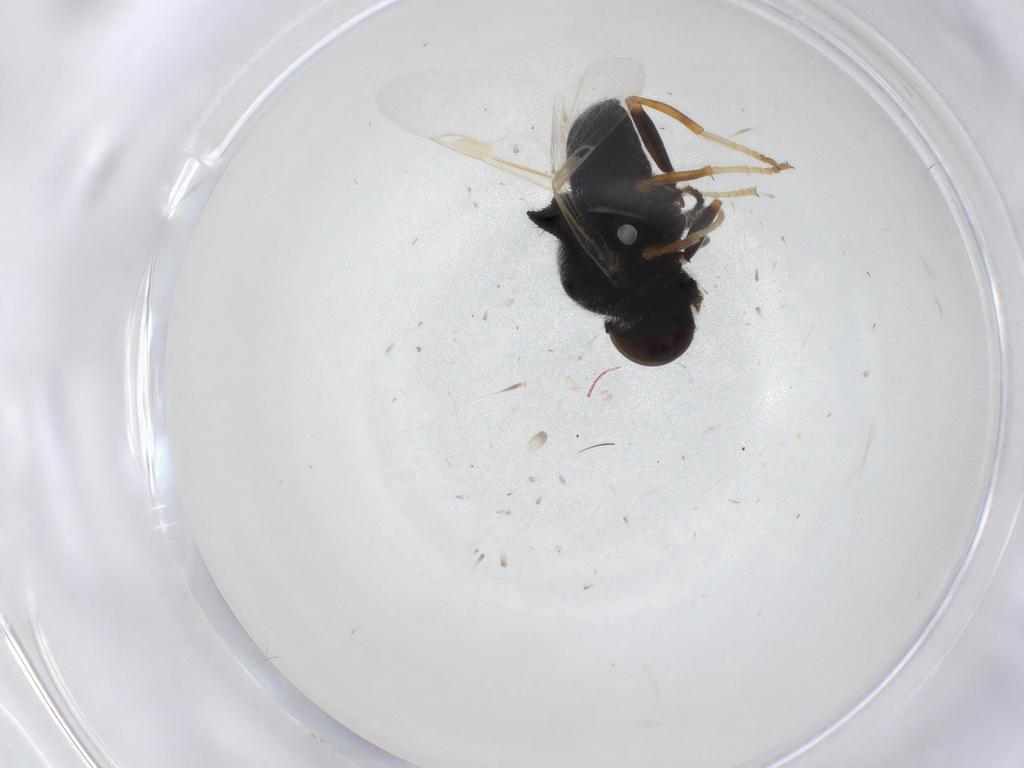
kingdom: Animalia
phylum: Arthropoda
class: Insecta
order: Diptera
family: Stratiomyidae
